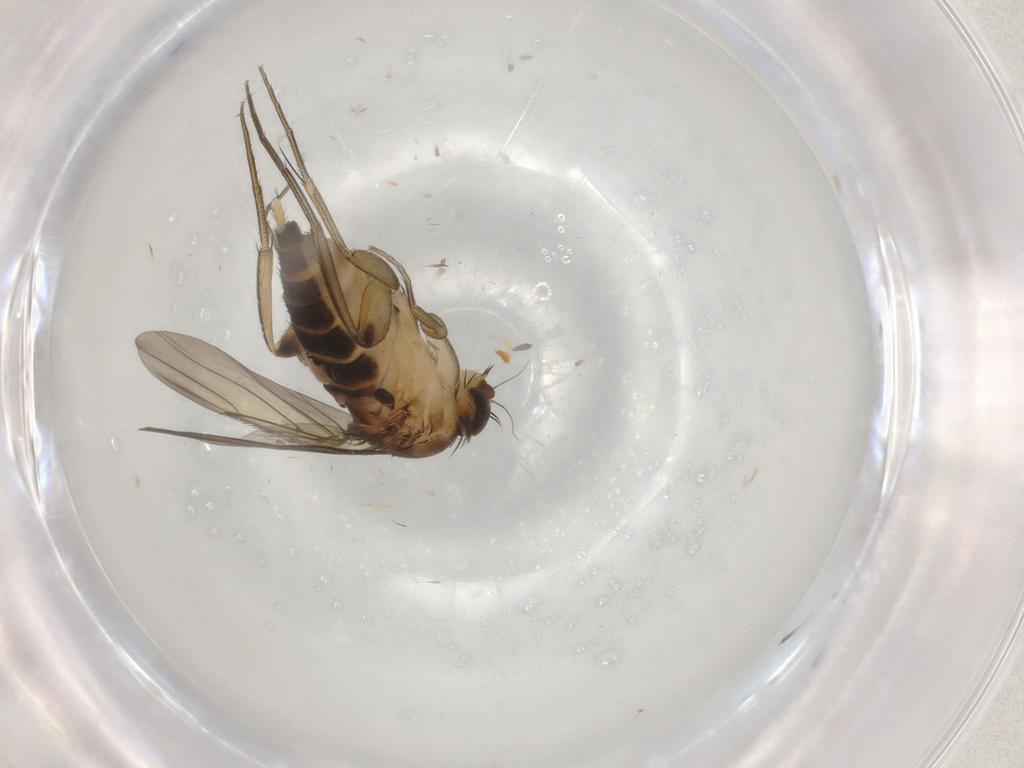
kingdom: Animalia
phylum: Arthropoda
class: Insecta
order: Diptera
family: Phoridae
